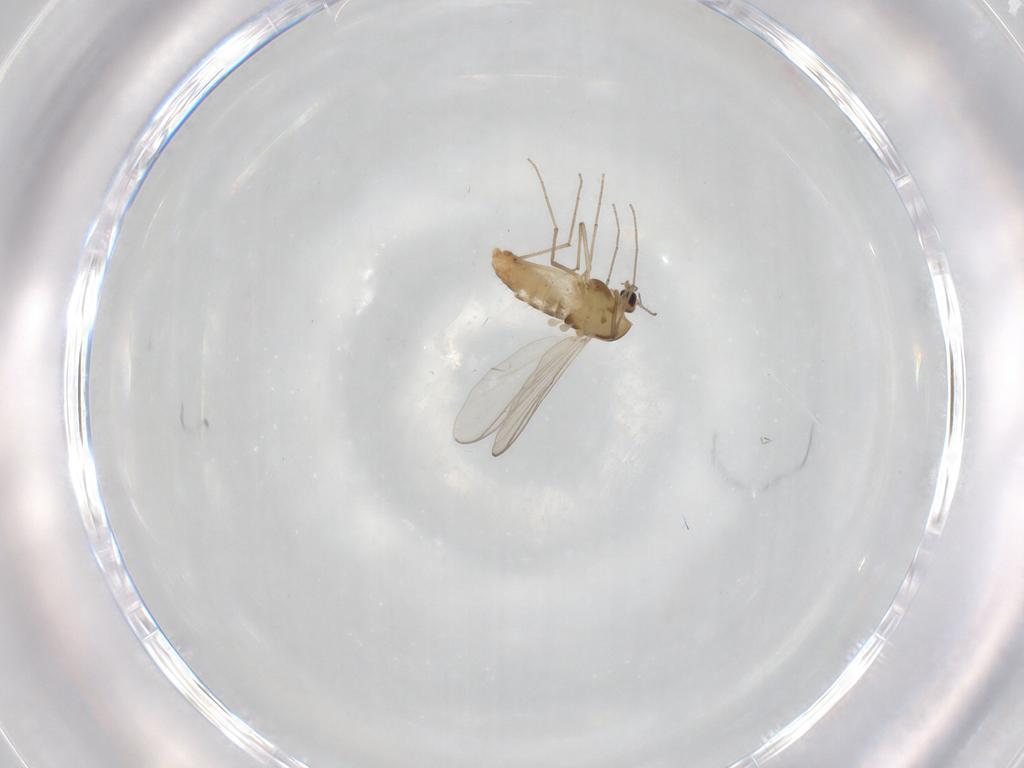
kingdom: Animalia
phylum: Arthropoda
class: Insecta
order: Diptera
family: Chironomidae
